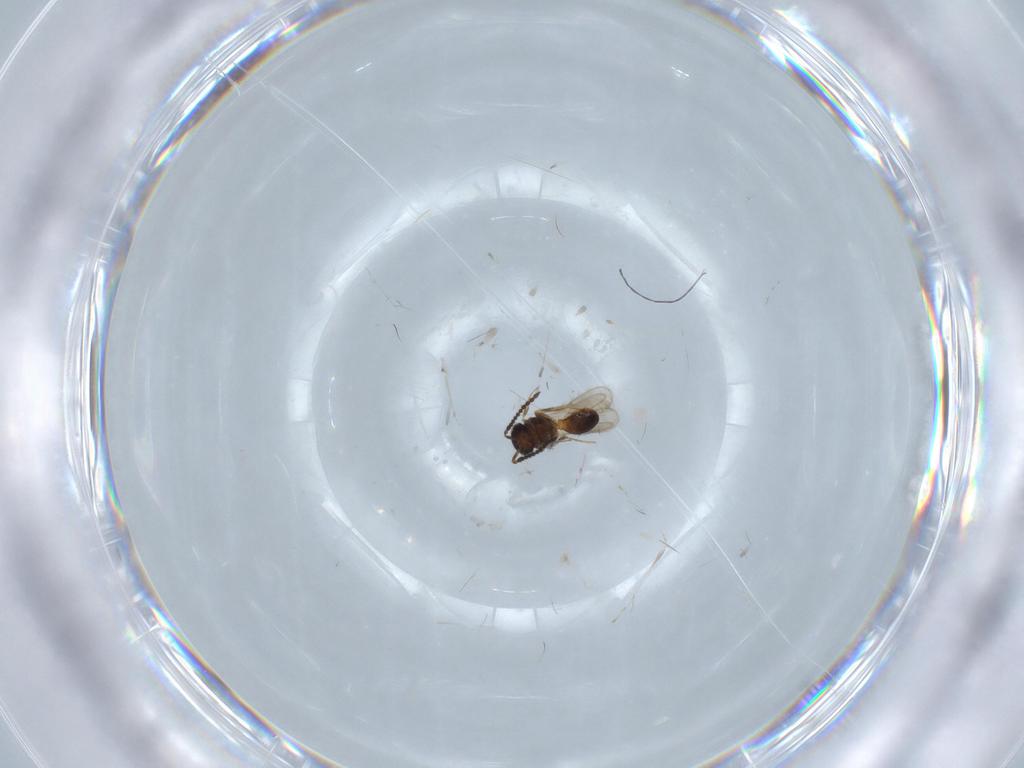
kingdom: Animalia
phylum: Arthropoda
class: Insecta
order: Hymenoptera
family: Scelionidae
